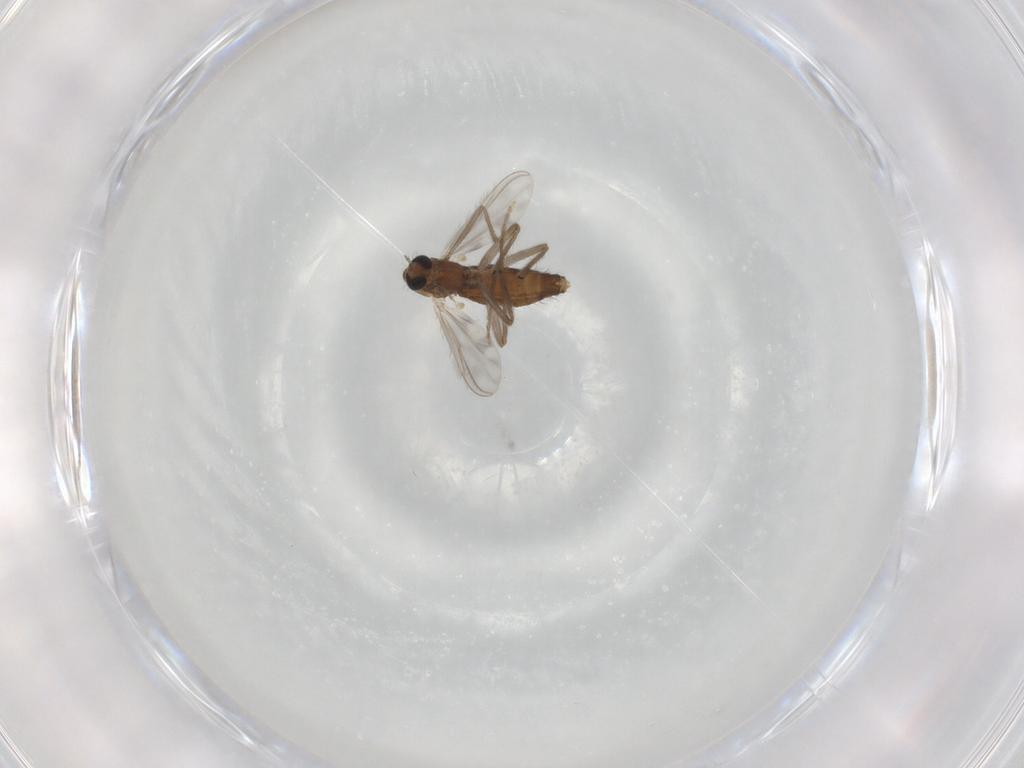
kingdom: Animalia
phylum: Arthropoda
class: Insecta
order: Diptera
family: Chironomidae
